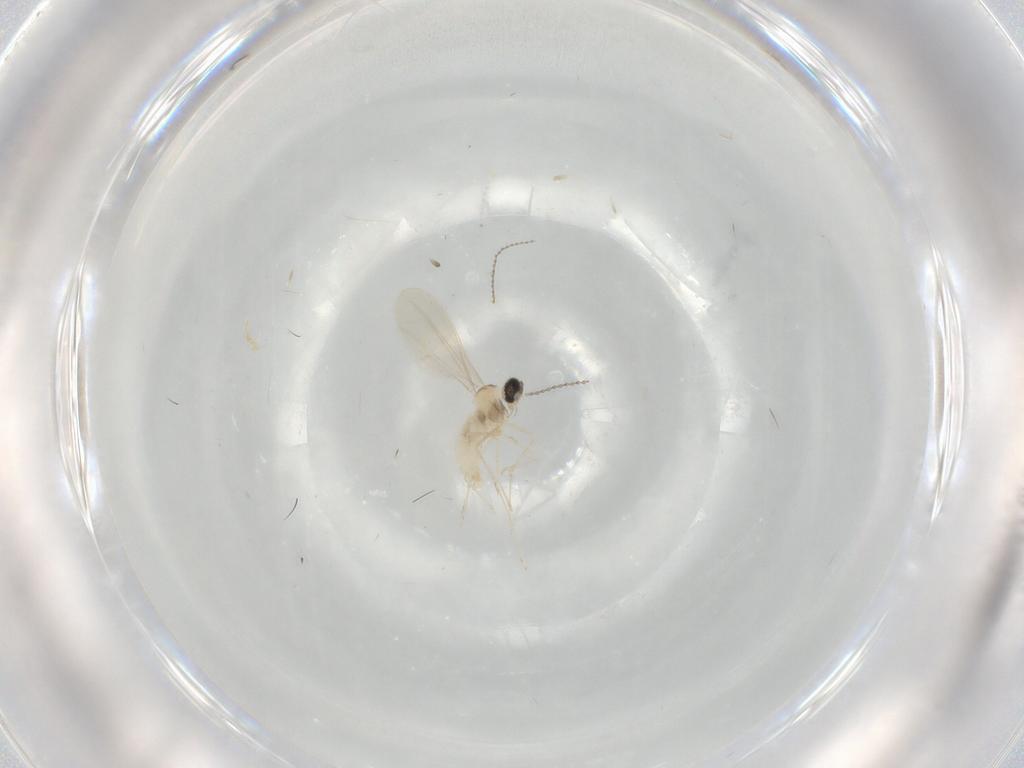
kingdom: Animalia
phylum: Arthropoda
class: Insecta
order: Diptera
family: Cecidomyiidae
